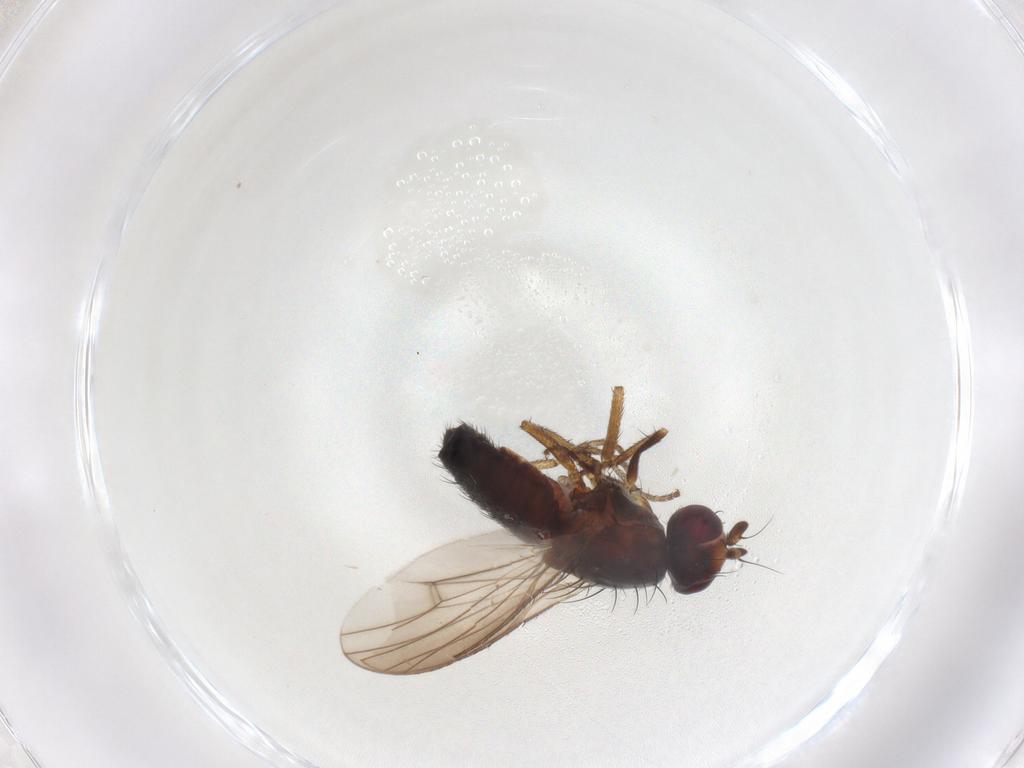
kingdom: Animalia
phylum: Arthropoda
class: Insecta
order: Diptera
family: Heleomyzidae
